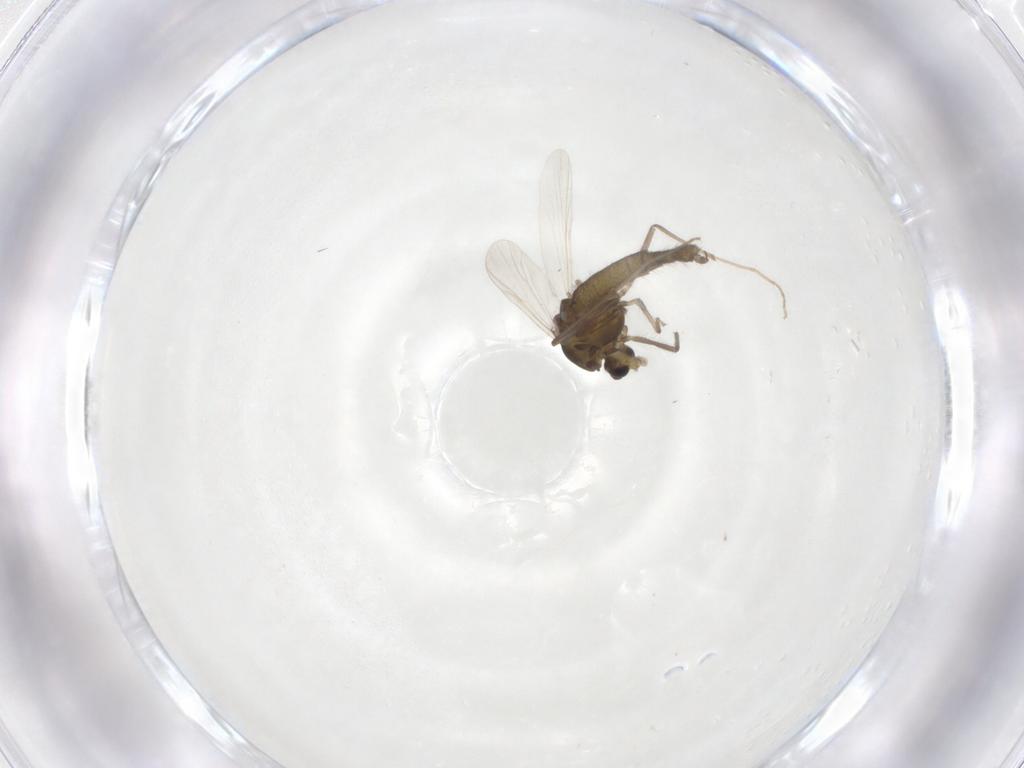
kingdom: Animalia
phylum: Arthropoda
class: Insecta
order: Diptera
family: Chironomidae
